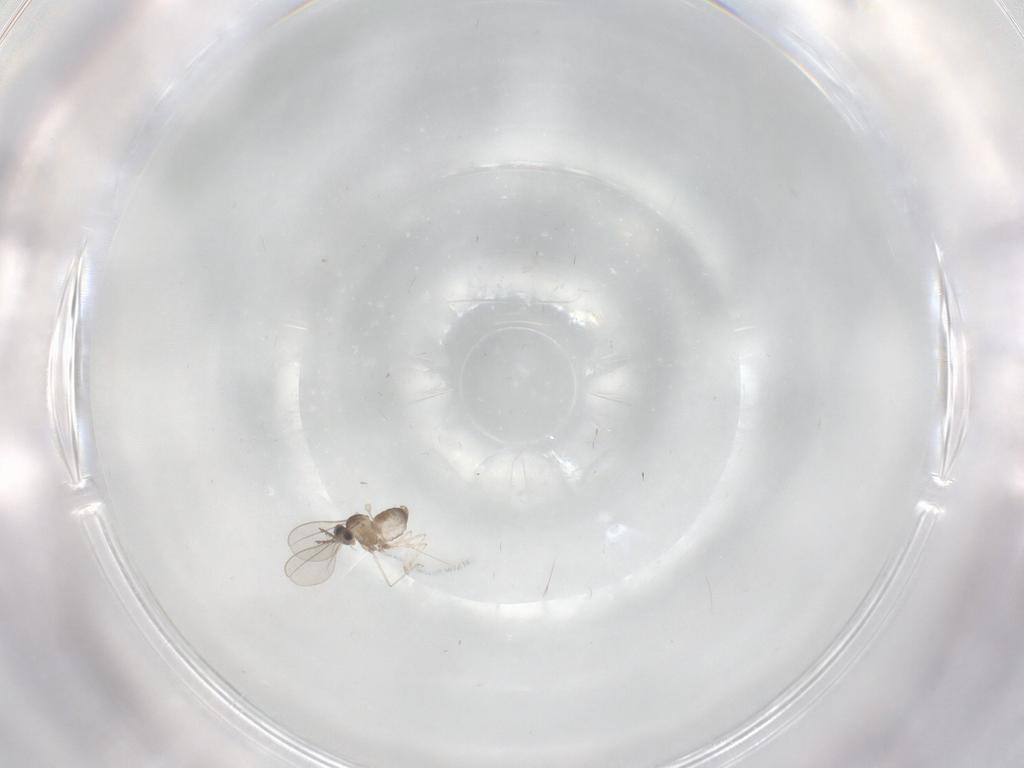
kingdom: Animalia
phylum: Arthropoda
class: Insecta
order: Diptera
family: Cecidomyiidae
